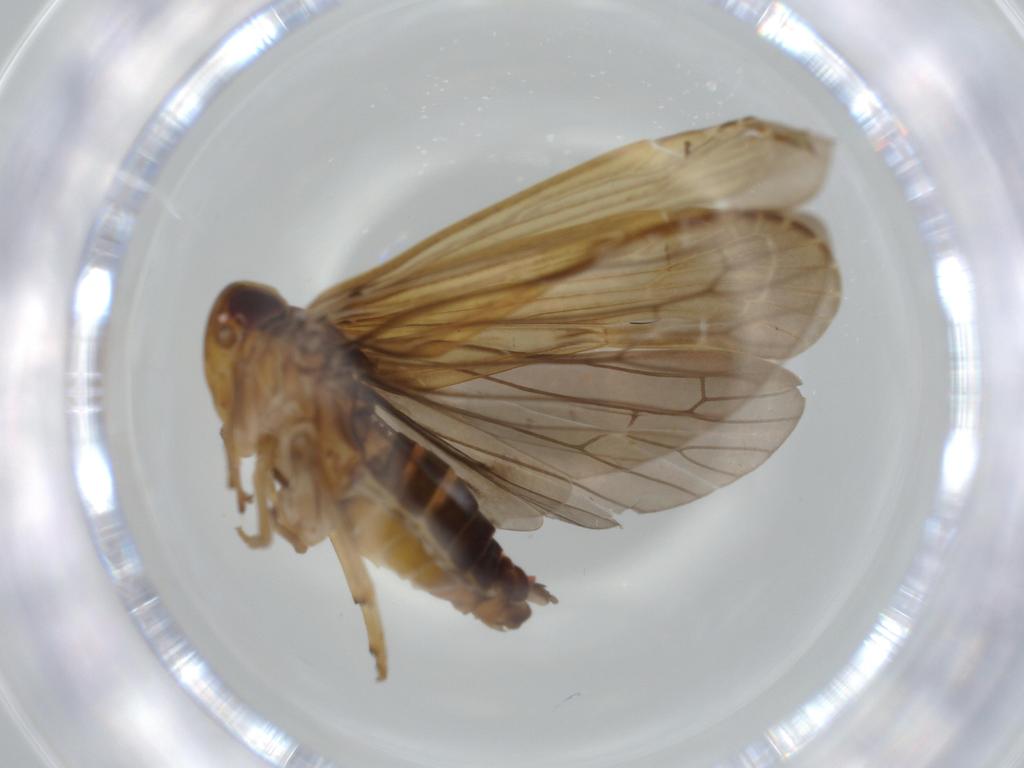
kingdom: Animalia
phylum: Arthropoda
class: Insecta
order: Hemiptera
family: Achilidae
